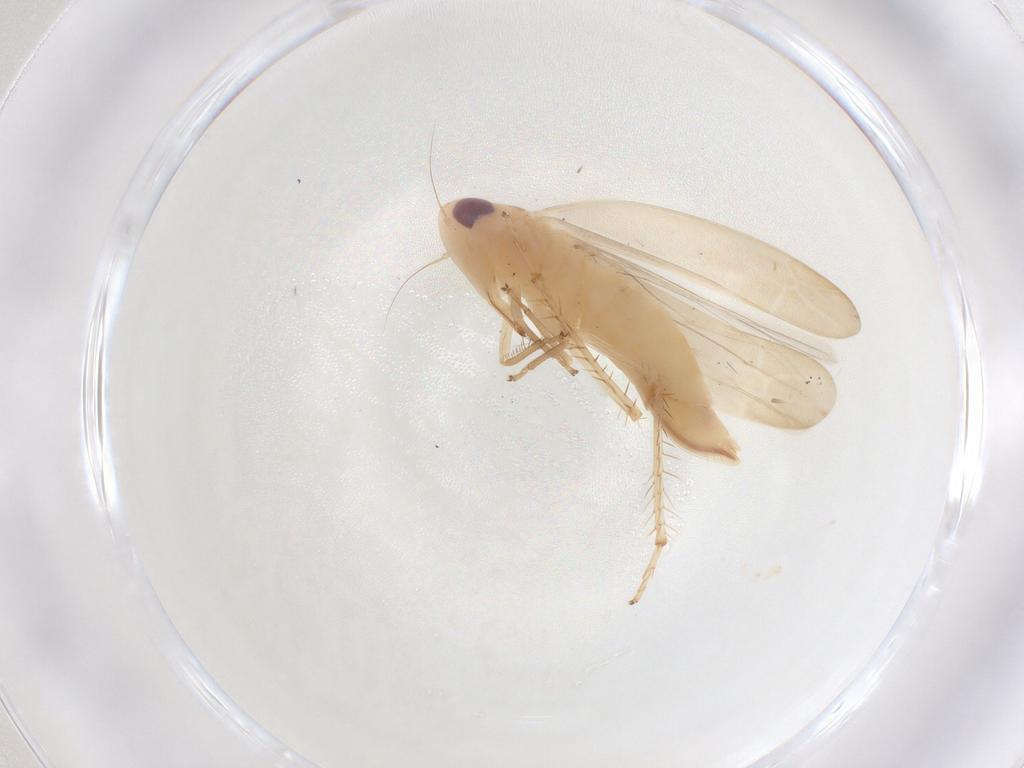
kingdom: Animalia
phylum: Arthropoda
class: Insecta
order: Hemiptera
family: Cicadellidae
